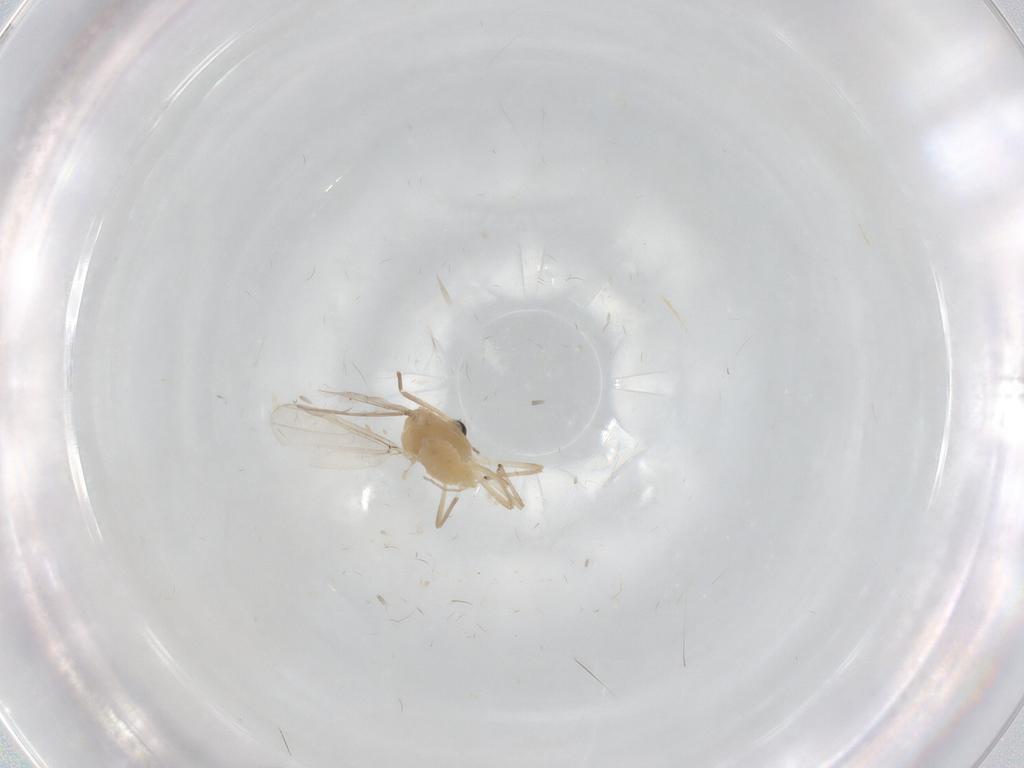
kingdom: Animalia
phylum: Arthropoda
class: Insecta
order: Diptera
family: Chironomidae
